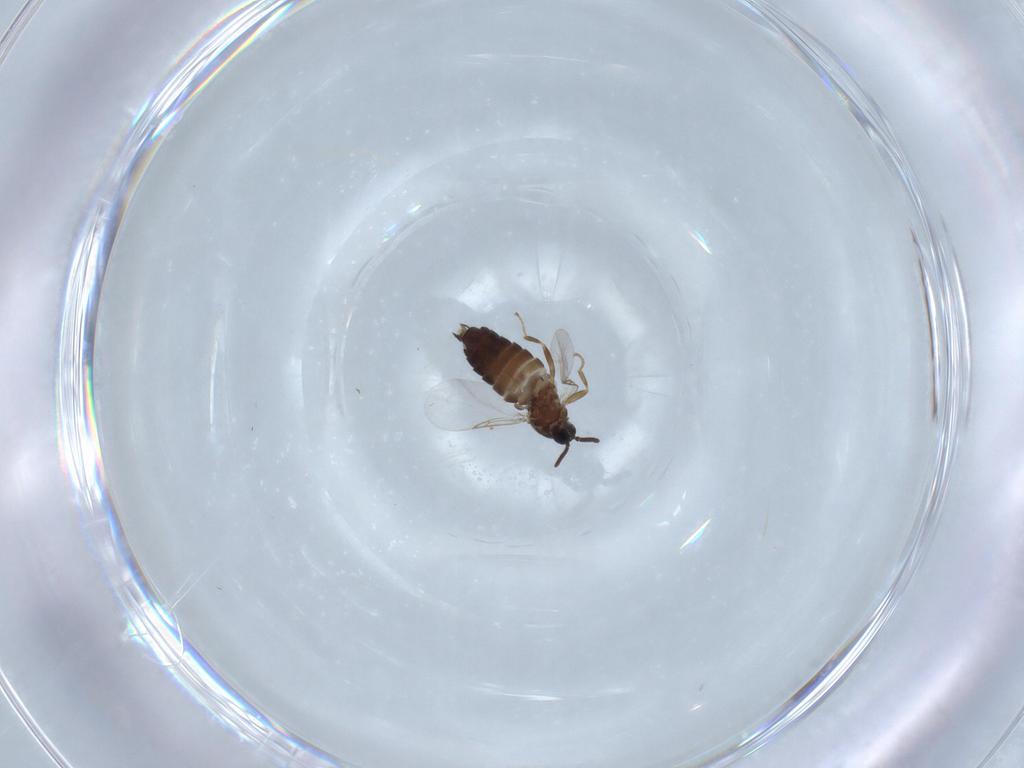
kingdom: Animalia
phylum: Arthropoda
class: Insecta
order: Diptera
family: Scatopsidae
